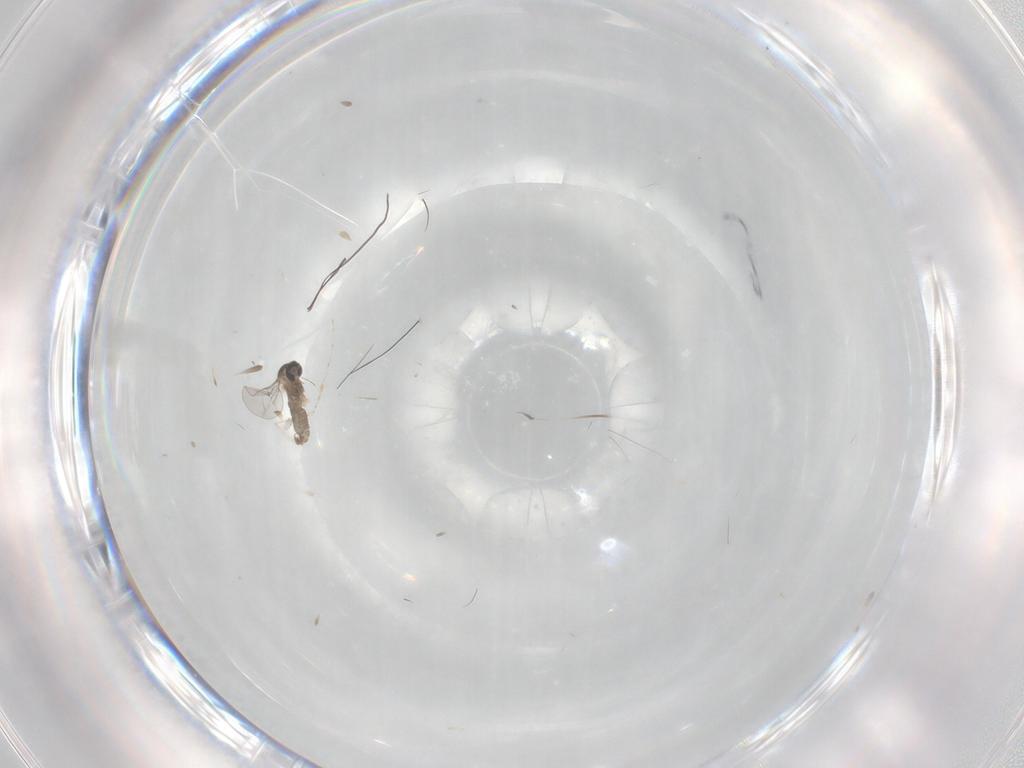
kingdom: Animalia
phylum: Arthropoda
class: Insecta
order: Diptera
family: Cecidomyiidae
